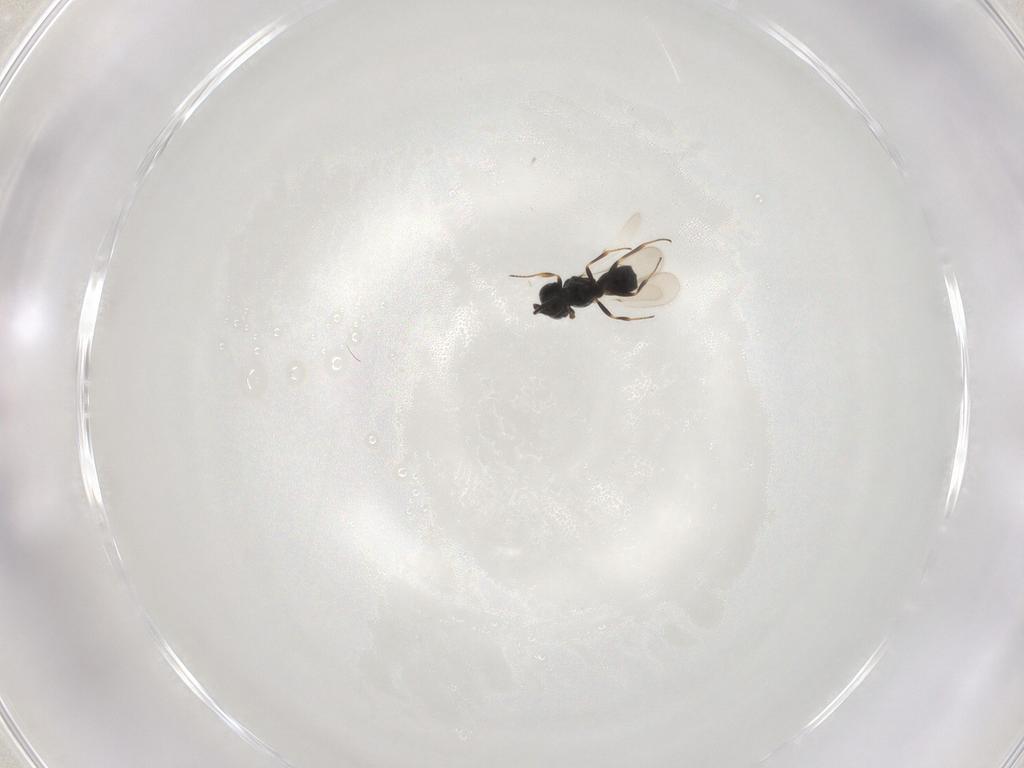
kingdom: Animalia
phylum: Arthropoda
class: Insecta
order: Hymenoptera
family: Scelionidae
